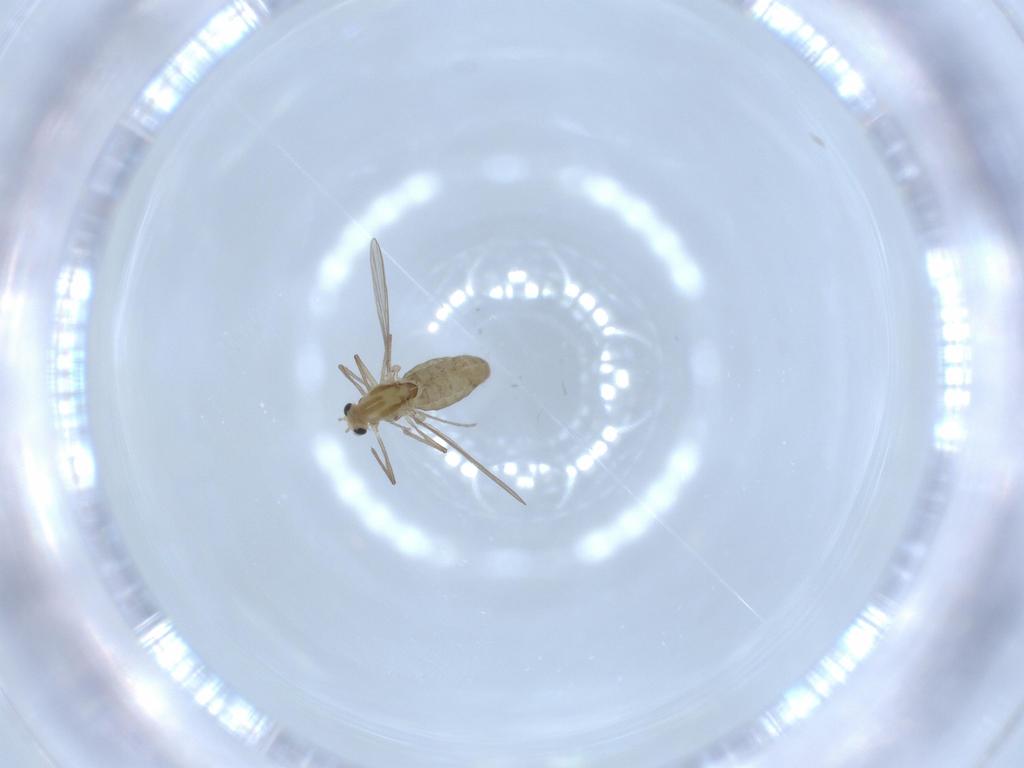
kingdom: Animalia
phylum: Arthropoda
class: Insecta
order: Diptera
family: Chironomidae
